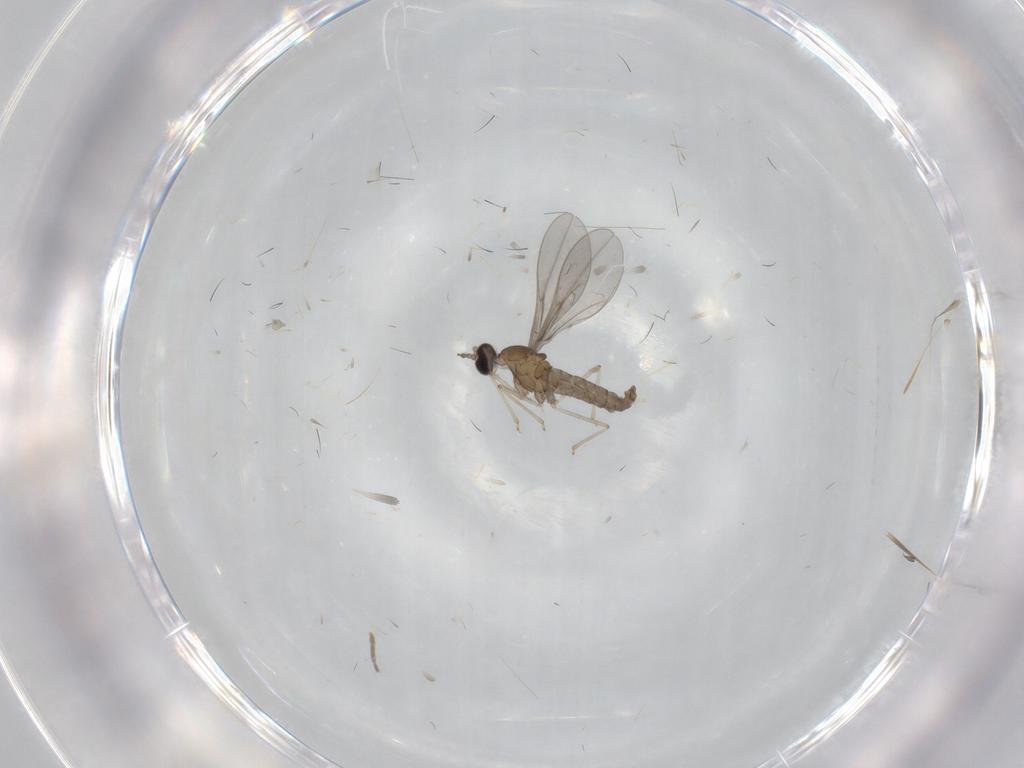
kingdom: Animalia
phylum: Arthropoda
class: Insecta
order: Diptera
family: Cecidomyiidae
